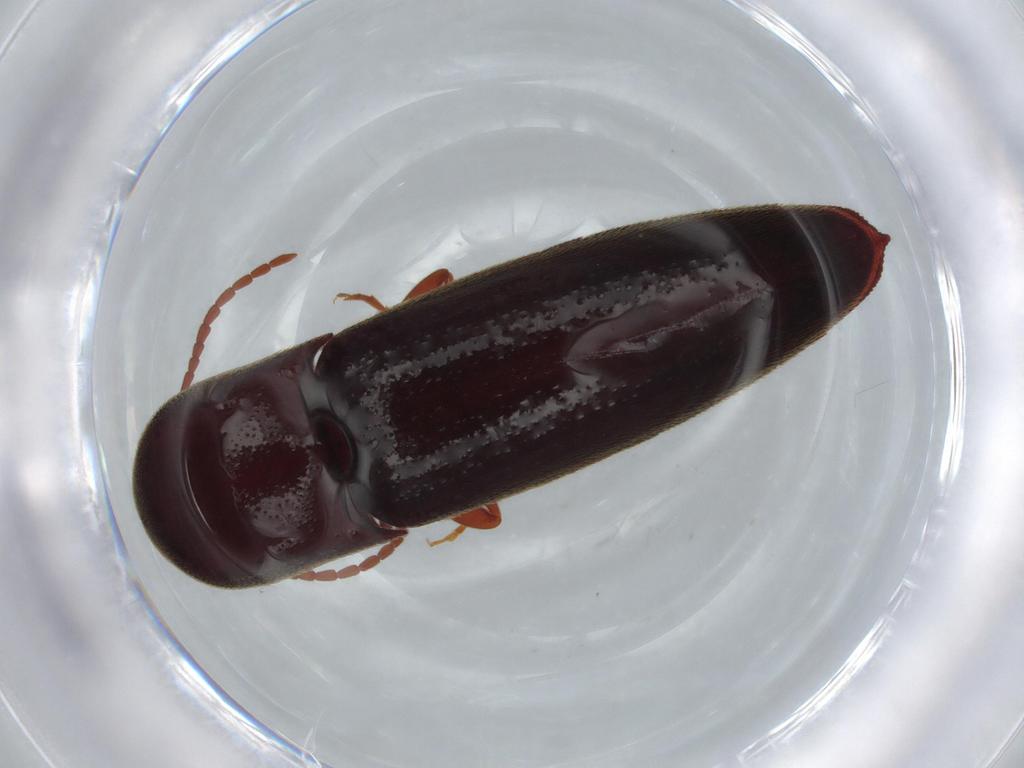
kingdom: Animalia
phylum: Arthropoda
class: Insecta
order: Coleoptera
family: Eucnemidae
